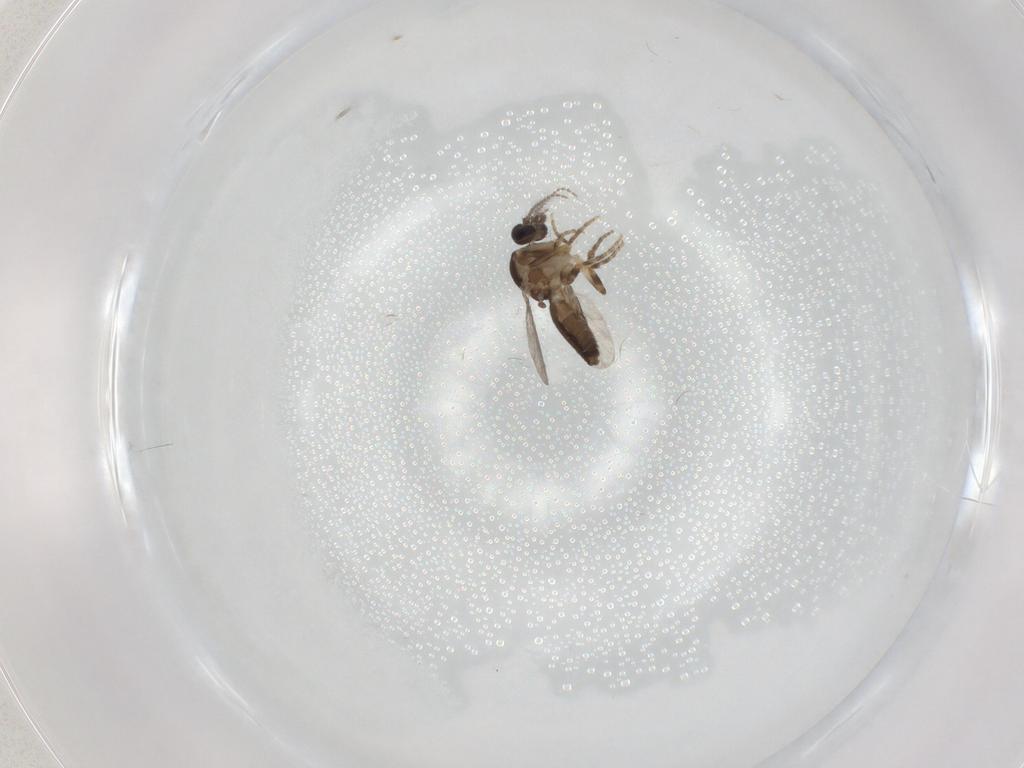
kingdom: Animalia
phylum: Arthropoda
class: Insecta
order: Diptera
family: Ceratopogonidae
